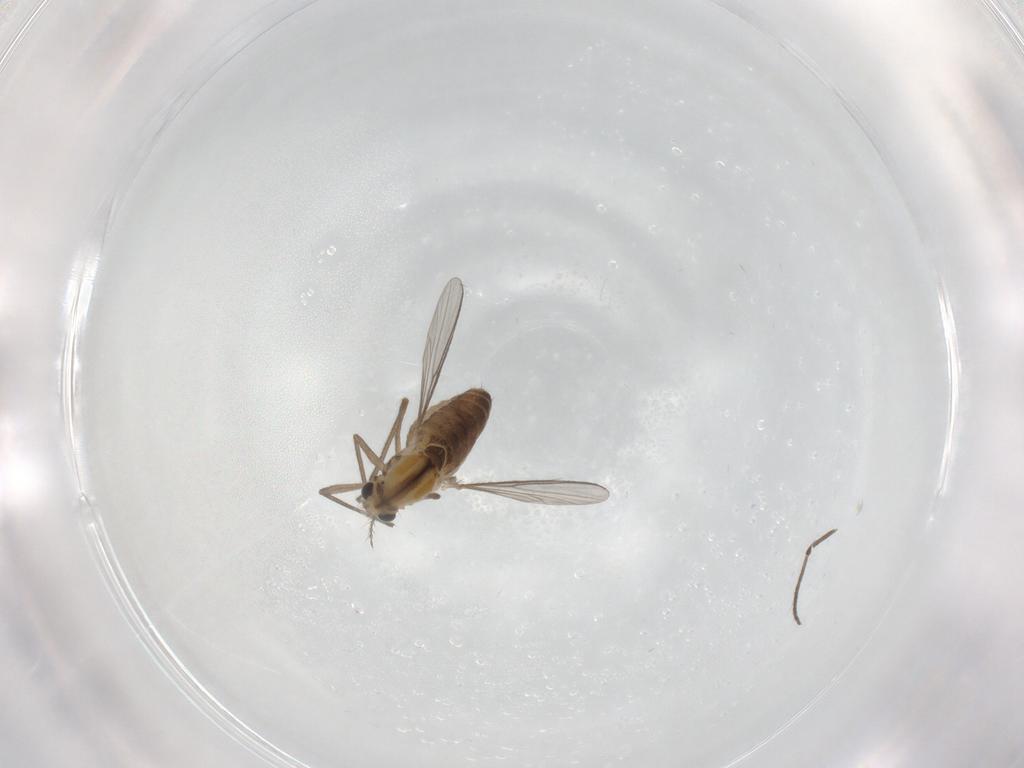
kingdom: Animalia
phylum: Arthropoda
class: Insecta
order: Diptera
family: Chironomidae
